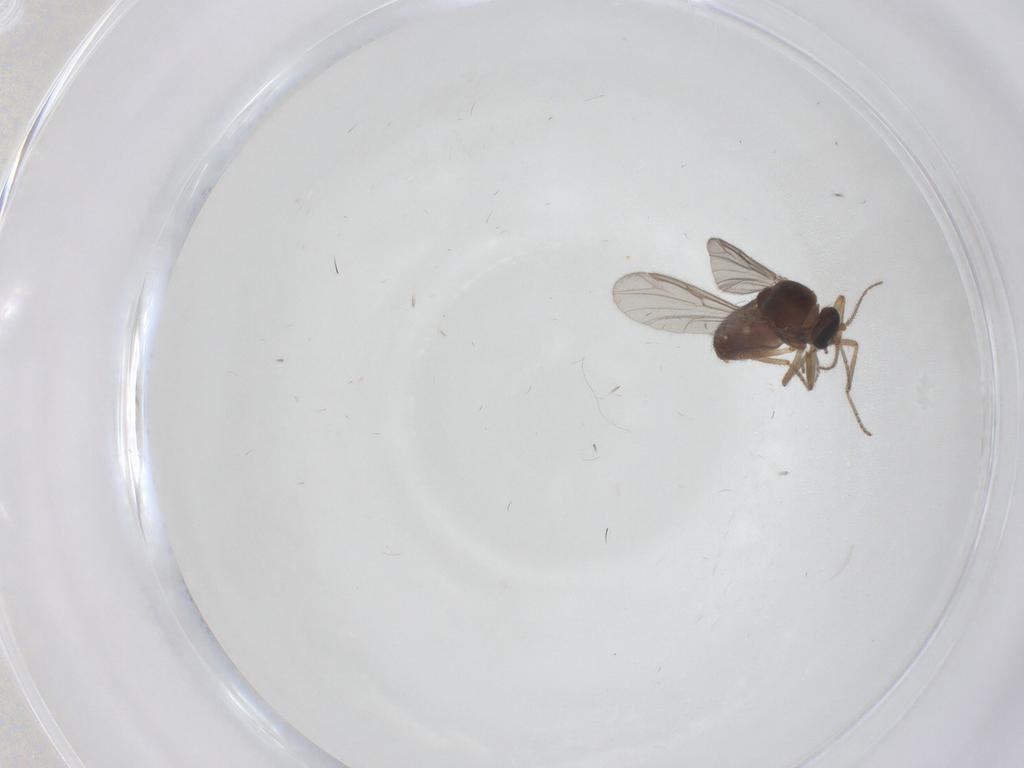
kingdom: Animalia
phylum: Arthropoda
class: Insecta
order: Diptera
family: Ceratopogonidae
